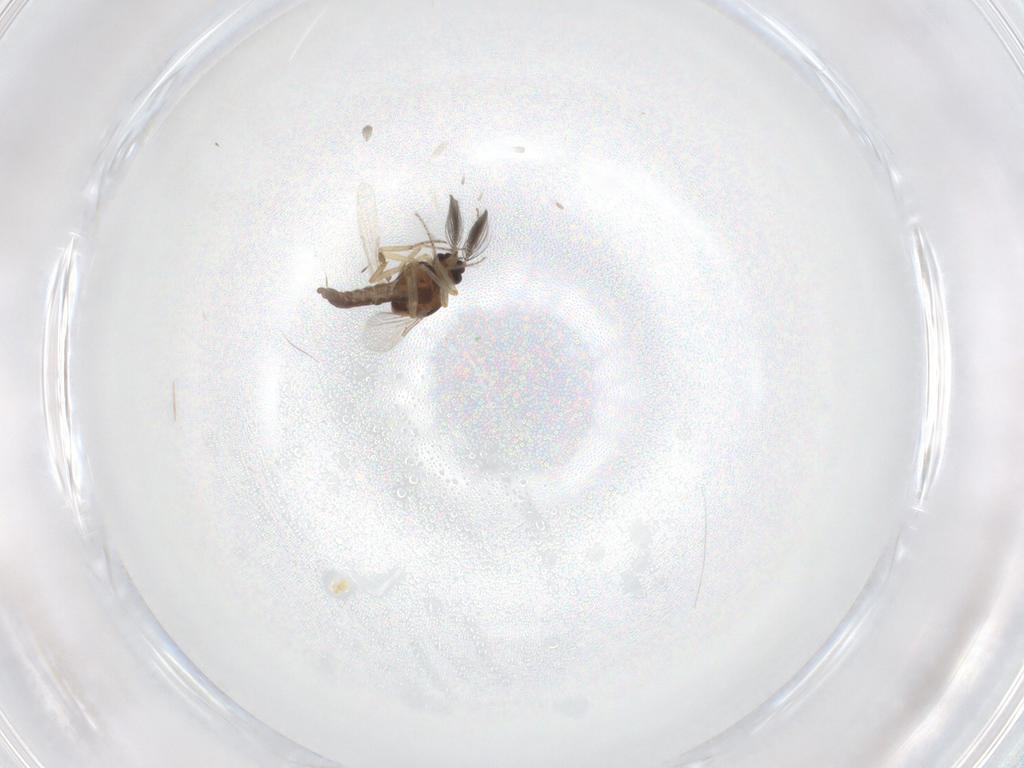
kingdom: Animalia
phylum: Arthropoda
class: Insecta
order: Diptera
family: Ceratopogonidae
